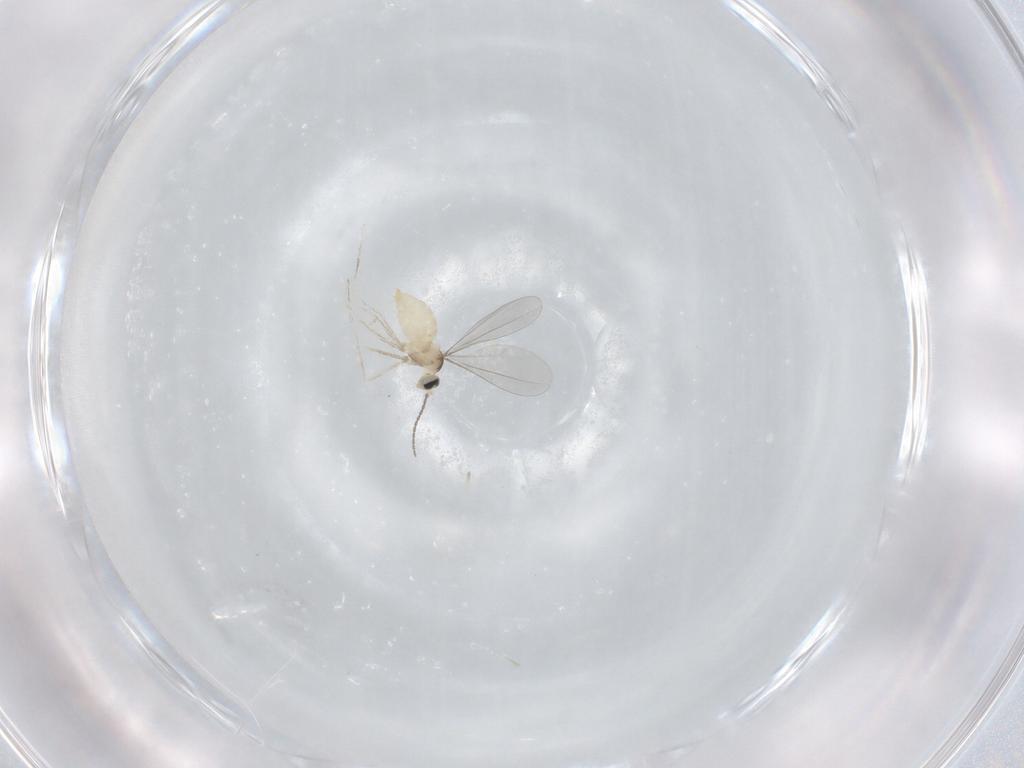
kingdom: Animalia
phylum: Arthropoda
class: Insecta
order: Diptera
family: Cecidomyiidae
